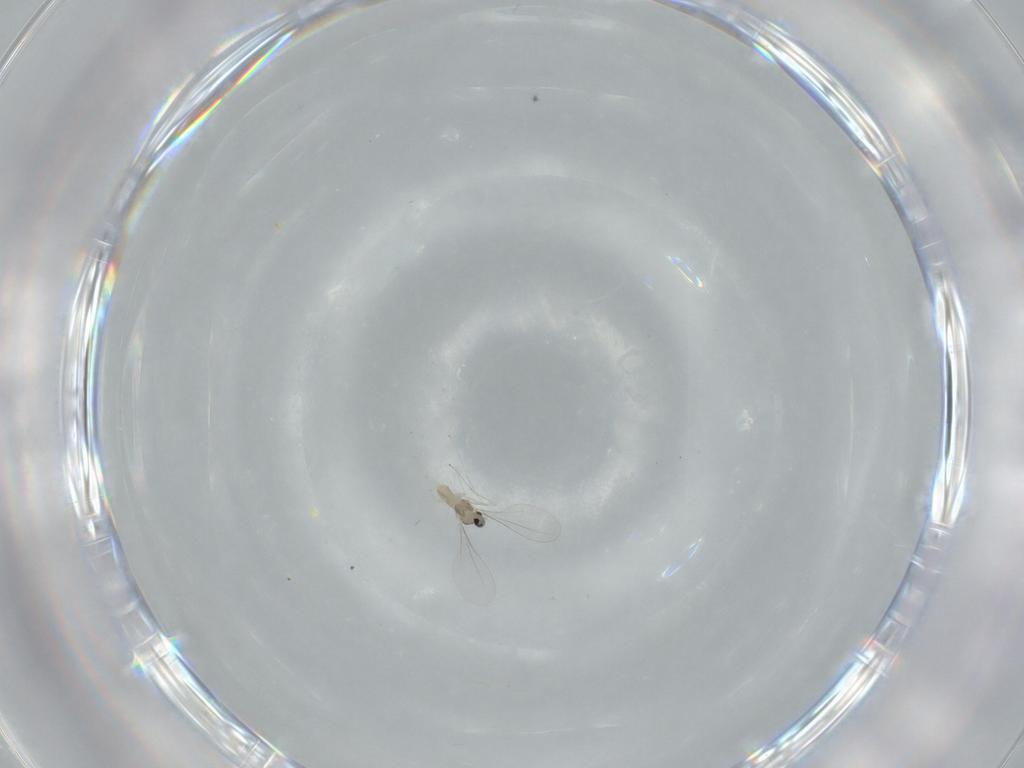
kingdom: Animalia
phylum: Arthropoda
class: Insecta
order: Diptera
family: Cecidomyiidae
